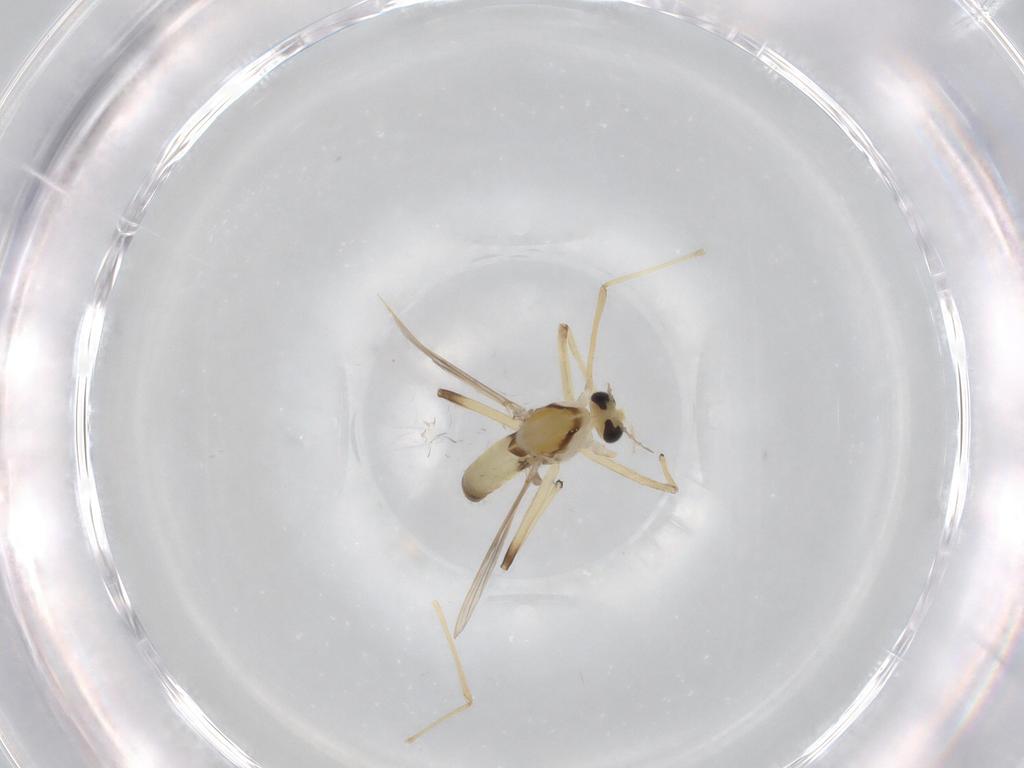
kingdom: Animalia
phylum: Arthropoda
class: Insecta
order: Diptera
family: Chironomidae
